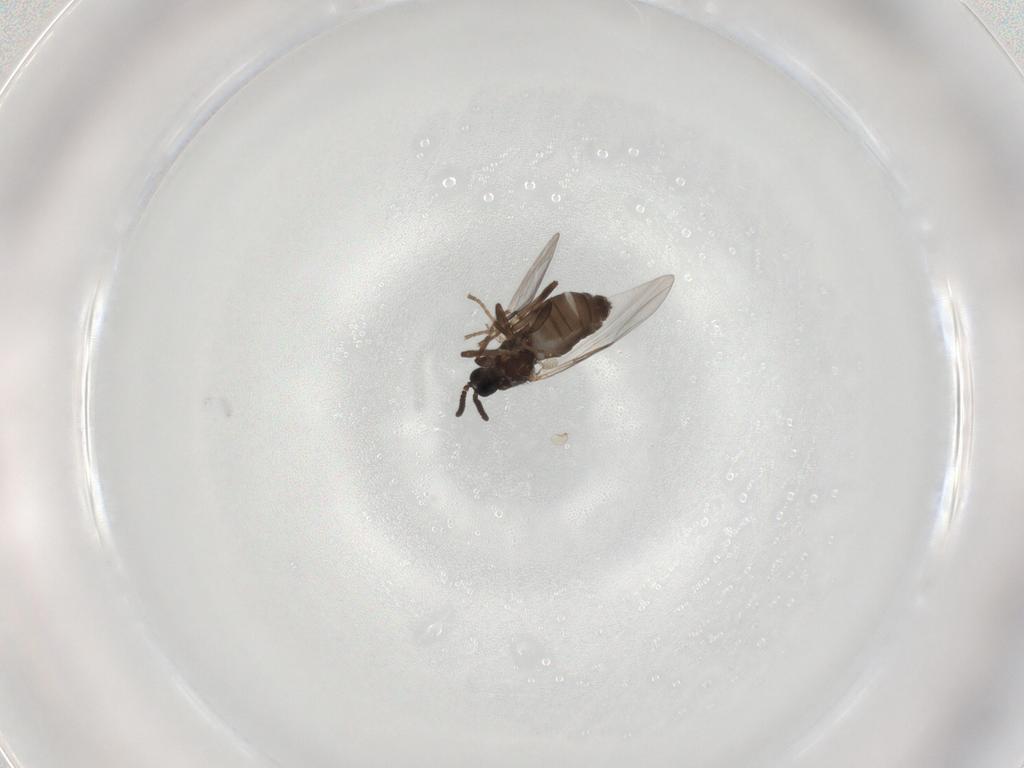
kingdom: Animalia
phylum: Arthropoda
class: Insecta
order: Diptera
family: Scatopsidae
